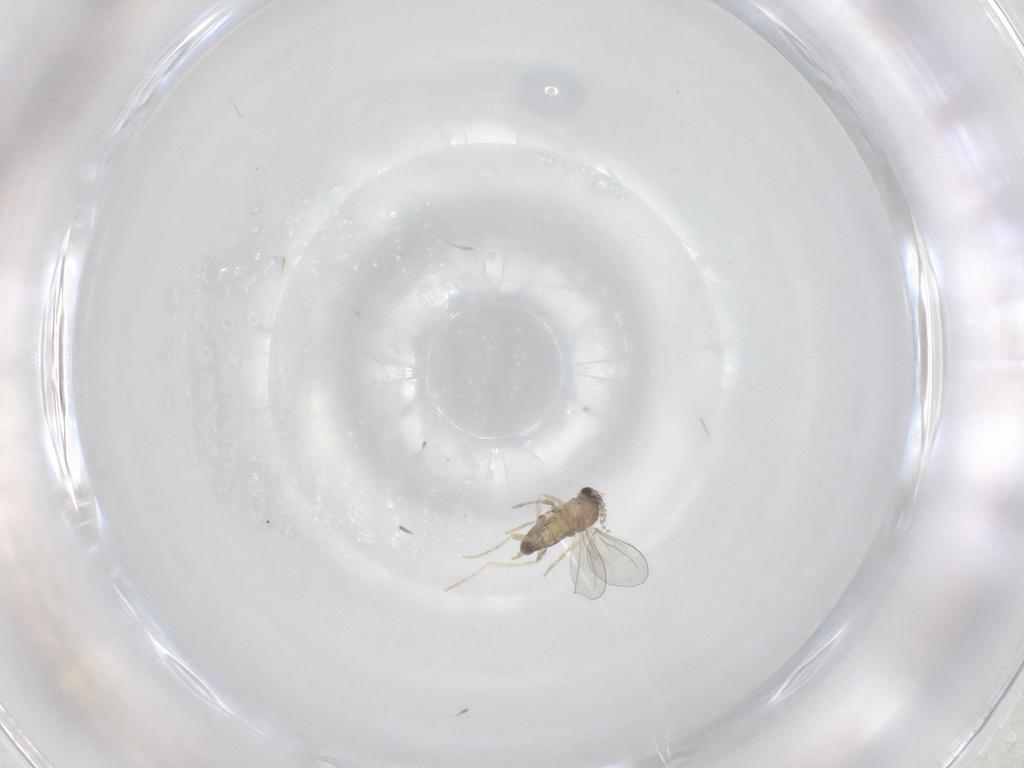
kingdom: Animalia
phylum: Arthropoda
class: Insecta
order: Diptera
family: Cecidomyiidae
